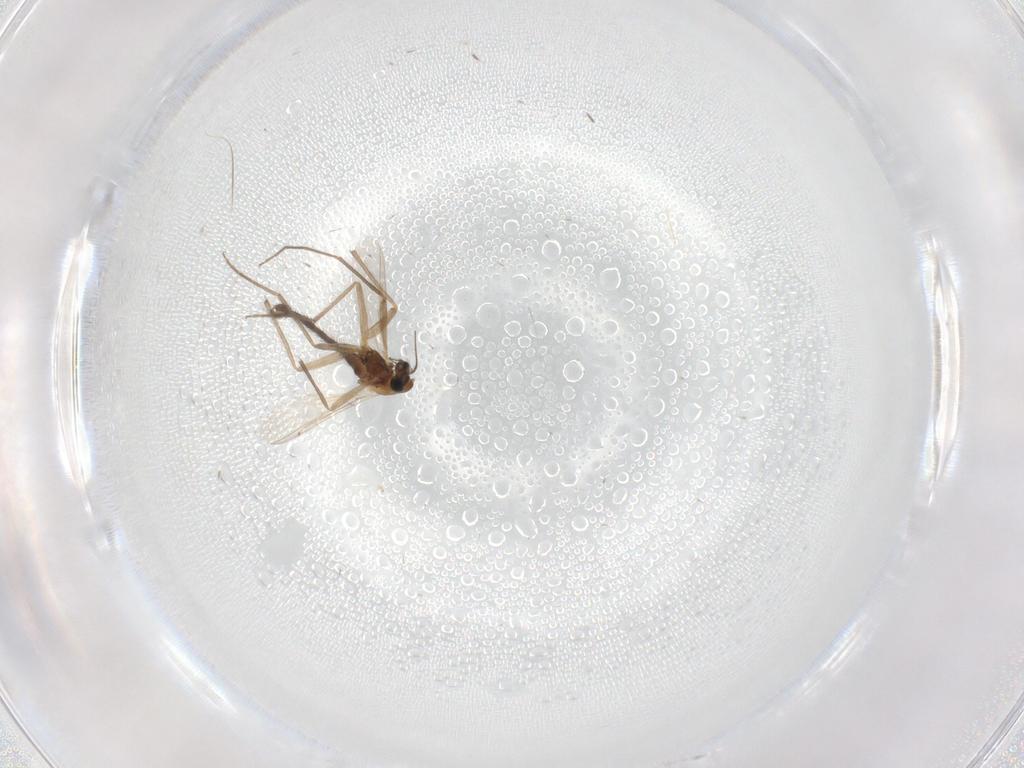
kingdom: Animalia
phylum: Arthropoda
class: Insecta
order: Diptera
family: Chironomidae
